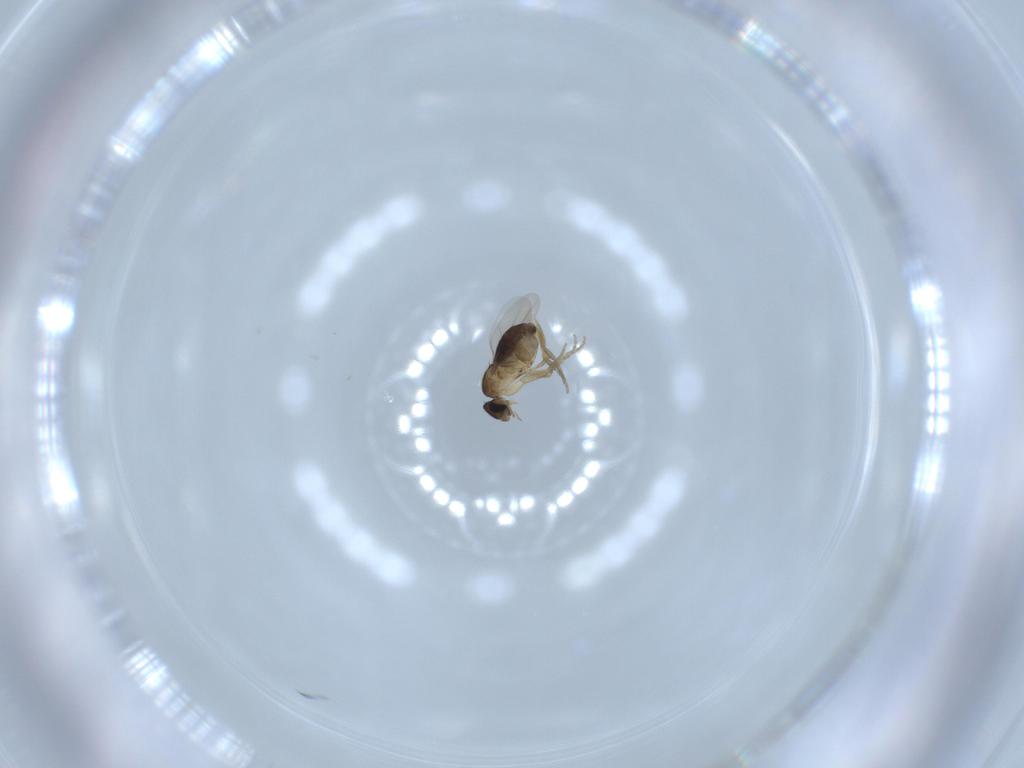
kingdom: Animalia
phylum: Arthropoda
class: Insecta
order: Diptera
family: Phoridae
